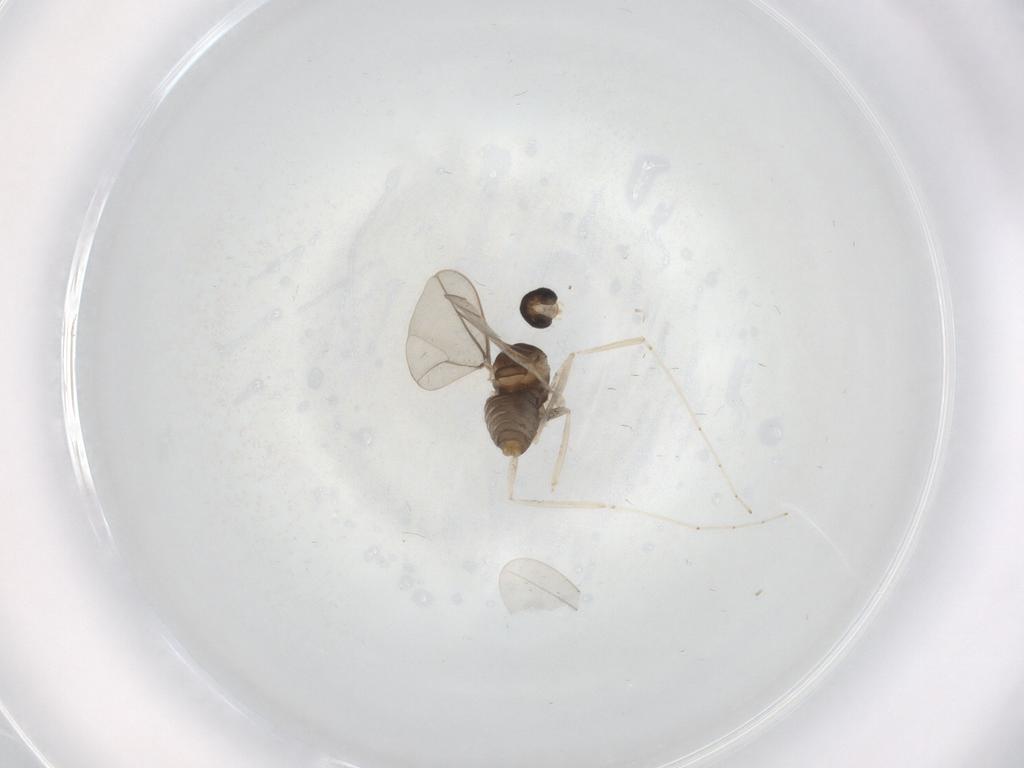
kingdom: Animalia
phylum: Arthropoda
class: Insecta
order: Diptera
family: Cecidomyiidae
